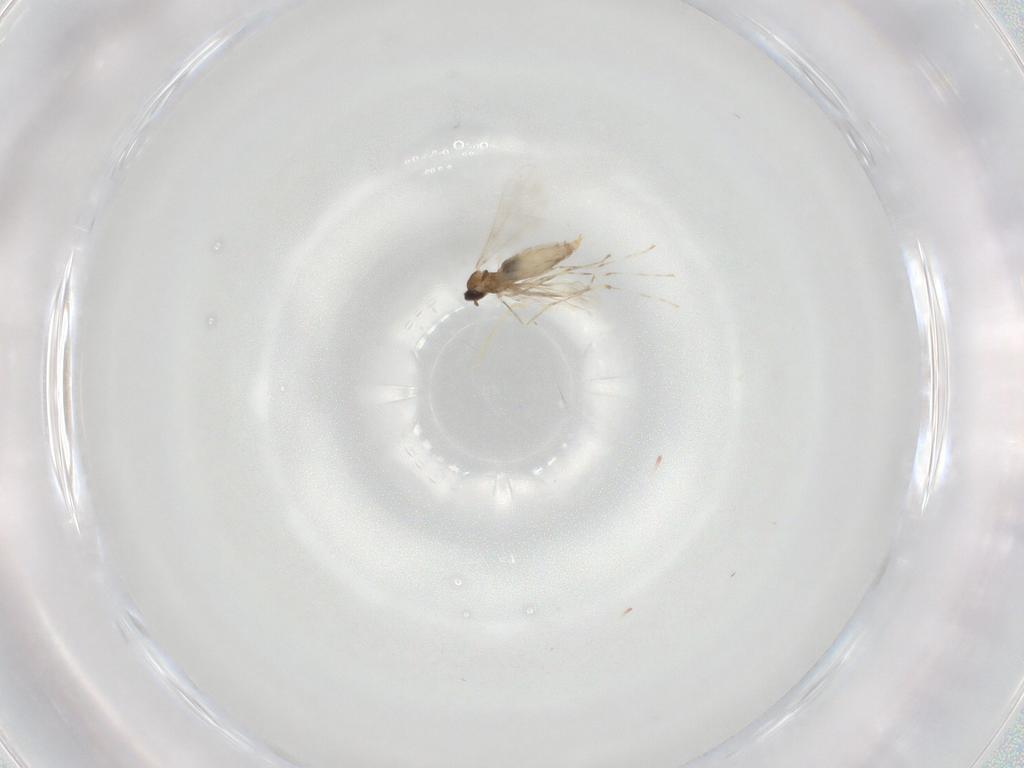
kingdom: Animalia
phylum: Arthropoda
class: Insecta
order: Diptera
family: Cecidomyiidae
